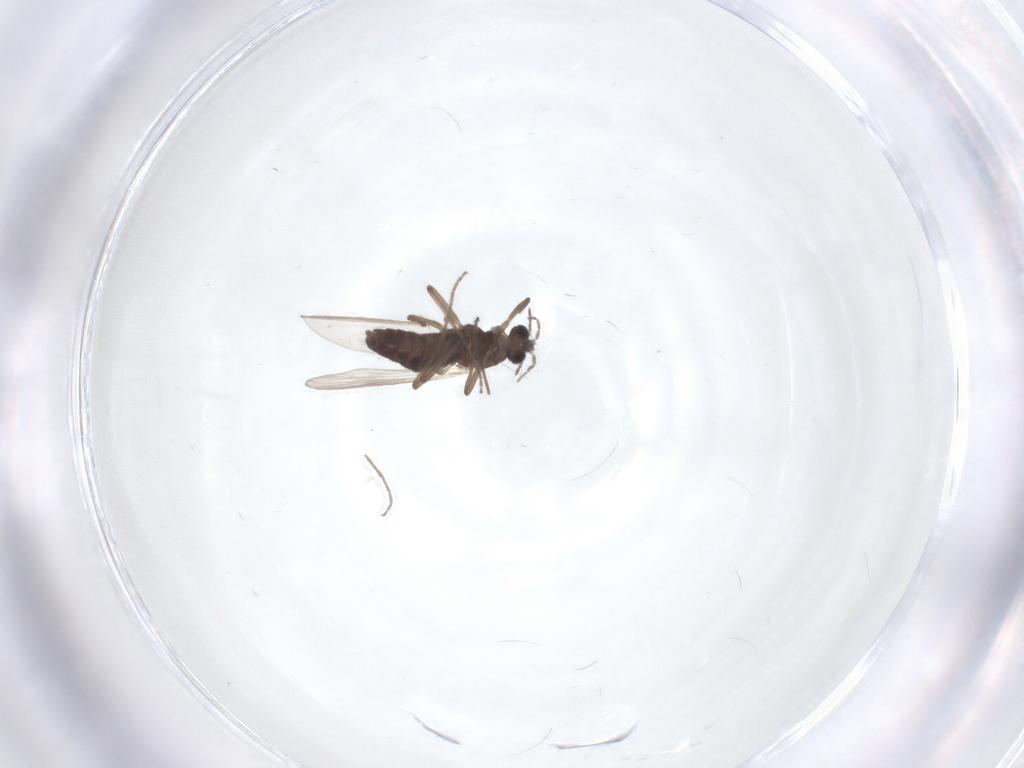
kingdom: Animalia
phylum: Arthropoda
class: Insecta
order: Diptera
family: Chironomidae
